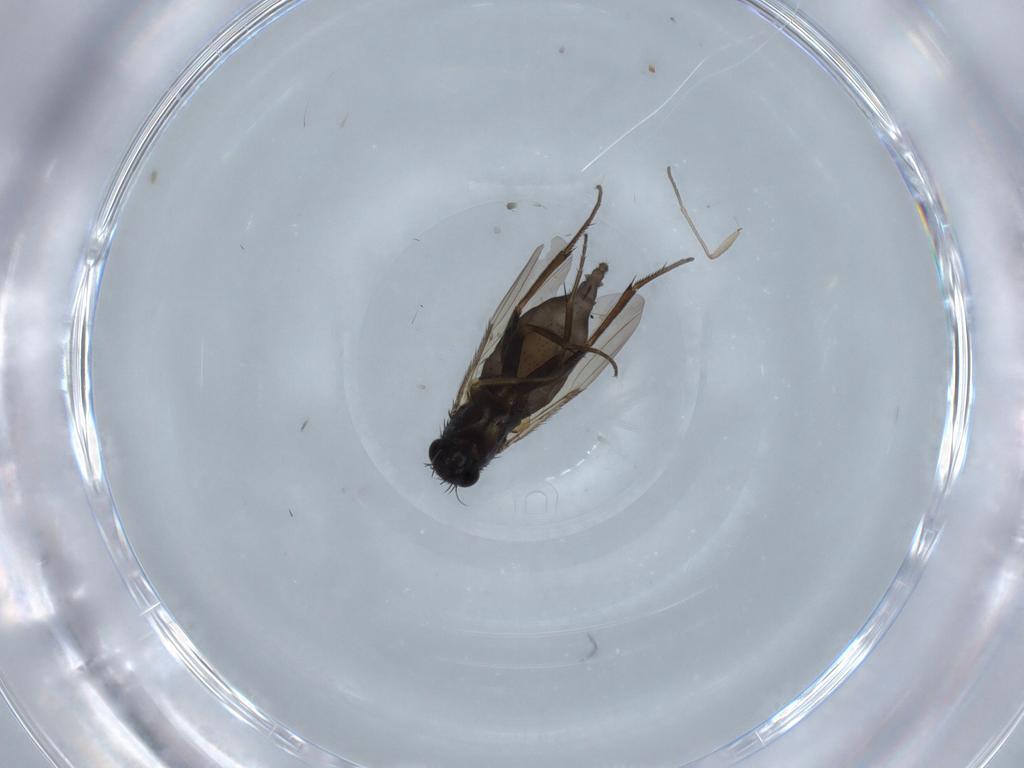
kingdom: Animalia
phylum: Arthropoda
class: Insecta
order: Diptera
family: Phoridae
